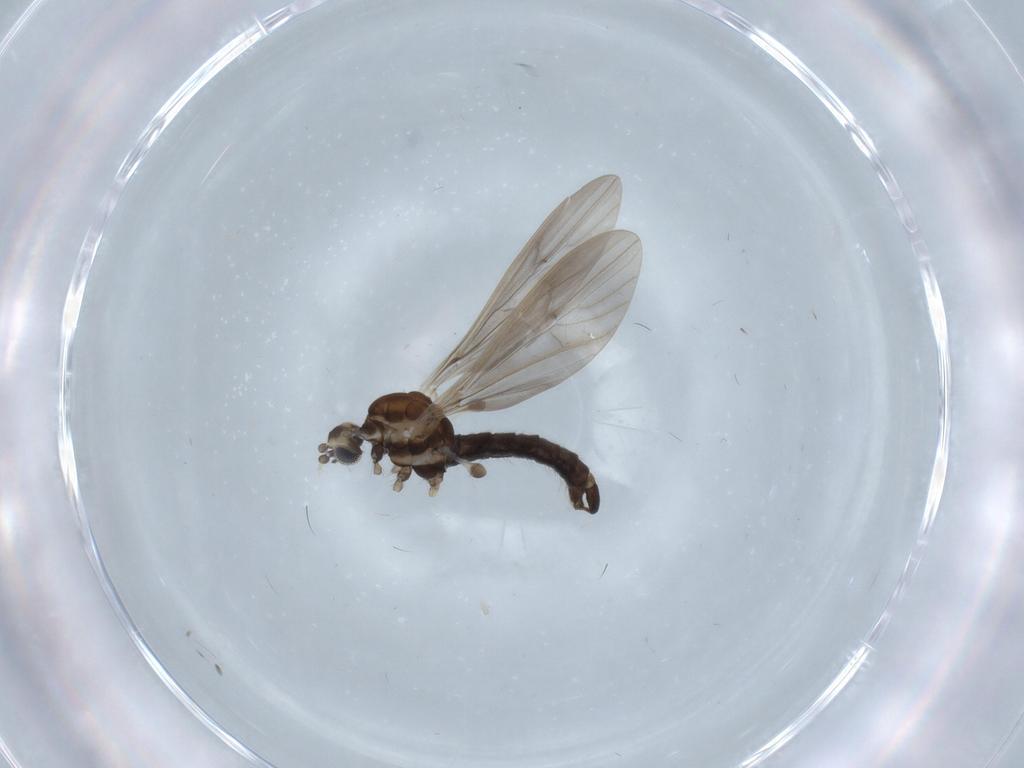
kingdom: Animalia
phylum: Arthropoda
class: Insecta
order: Diptera
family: Limoniidae
